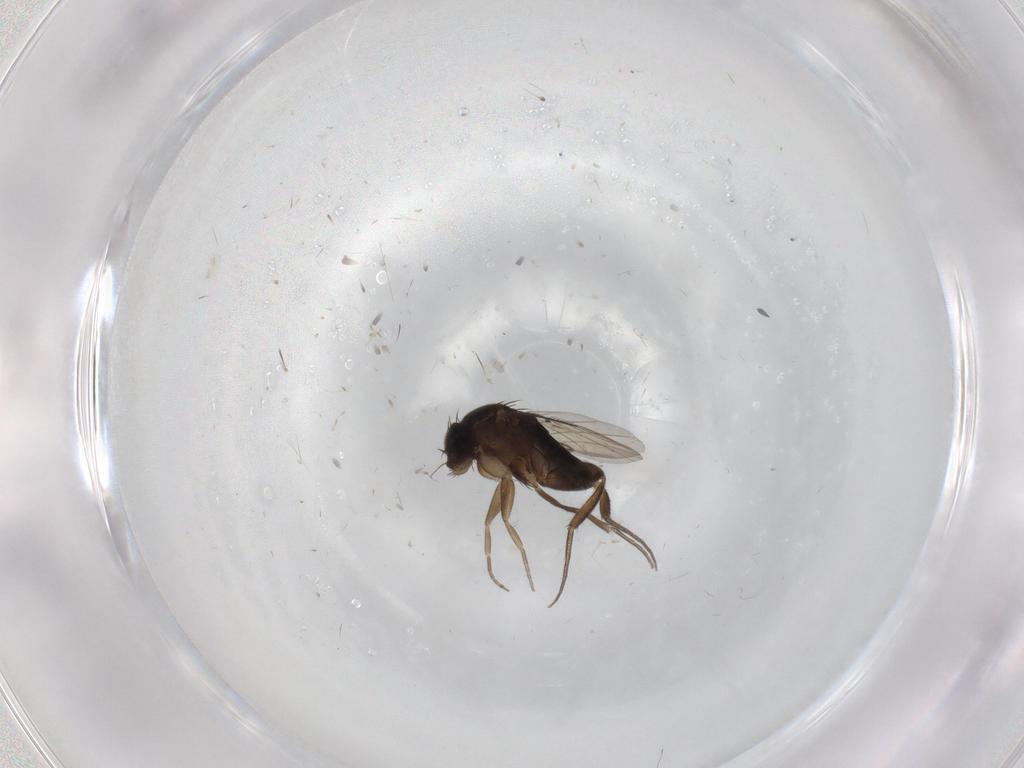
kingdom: Animalia
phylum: Arthropoda
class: Insecta
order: Diptera
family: Phoridae
